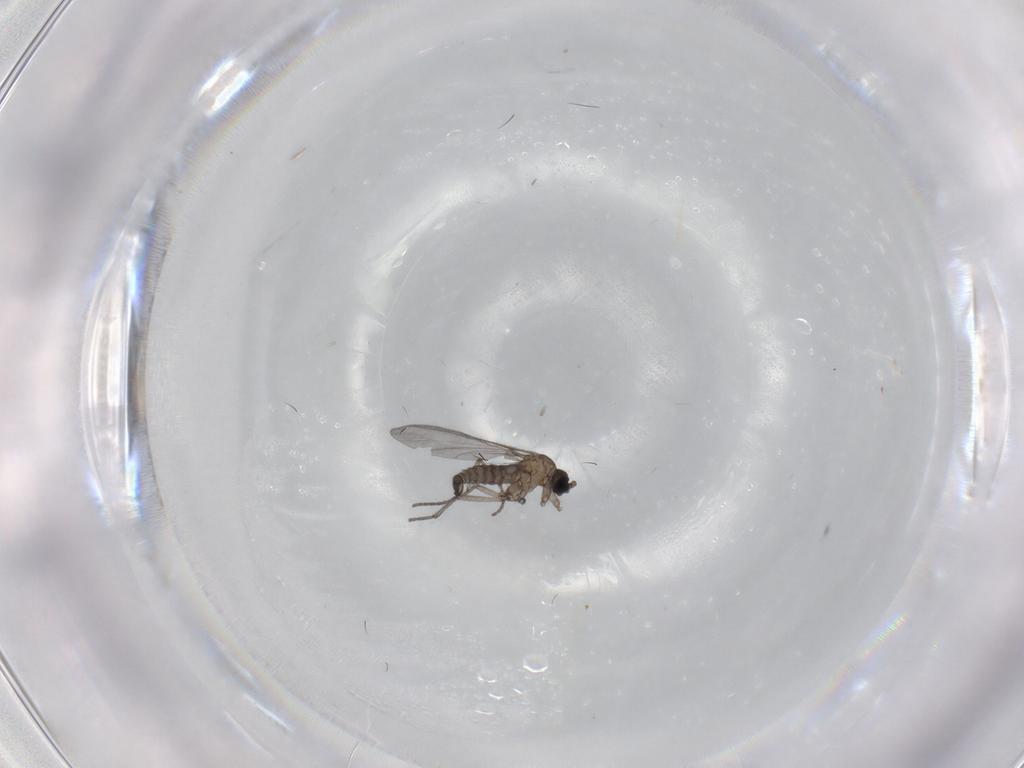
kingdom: Animalia
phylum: Arthropoda
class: Insecta
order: Diptera
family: Sciaridae
